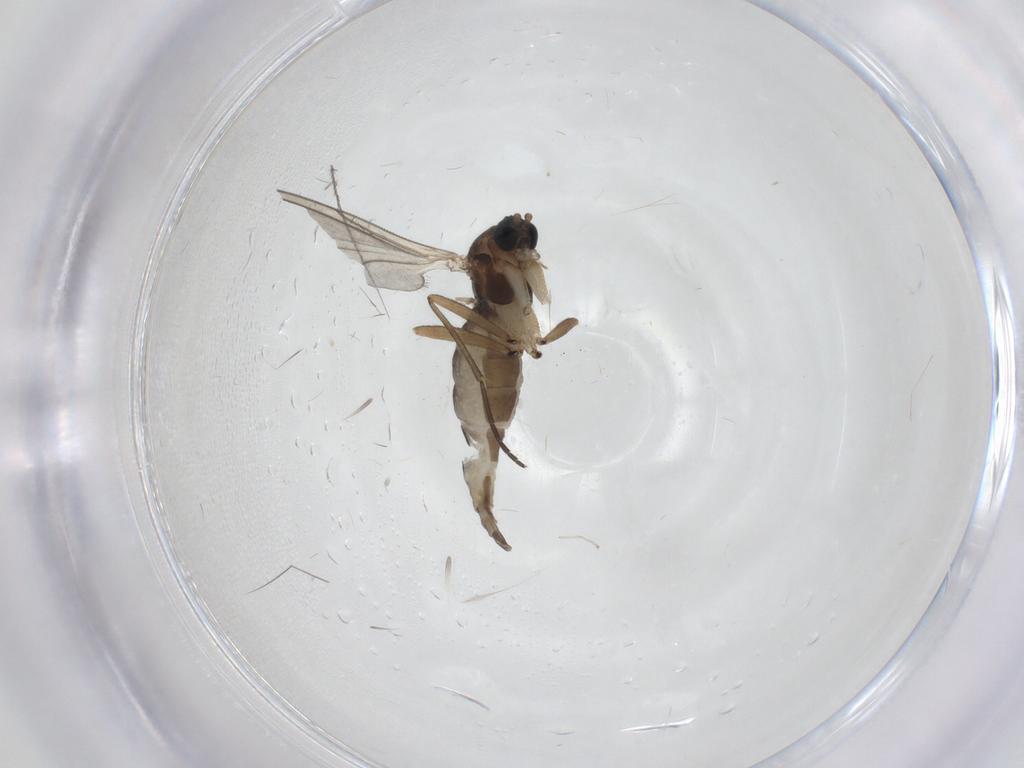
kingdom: Animalia
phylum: Arthropoda
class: Insecta
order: Diptera
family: Sciaridae
